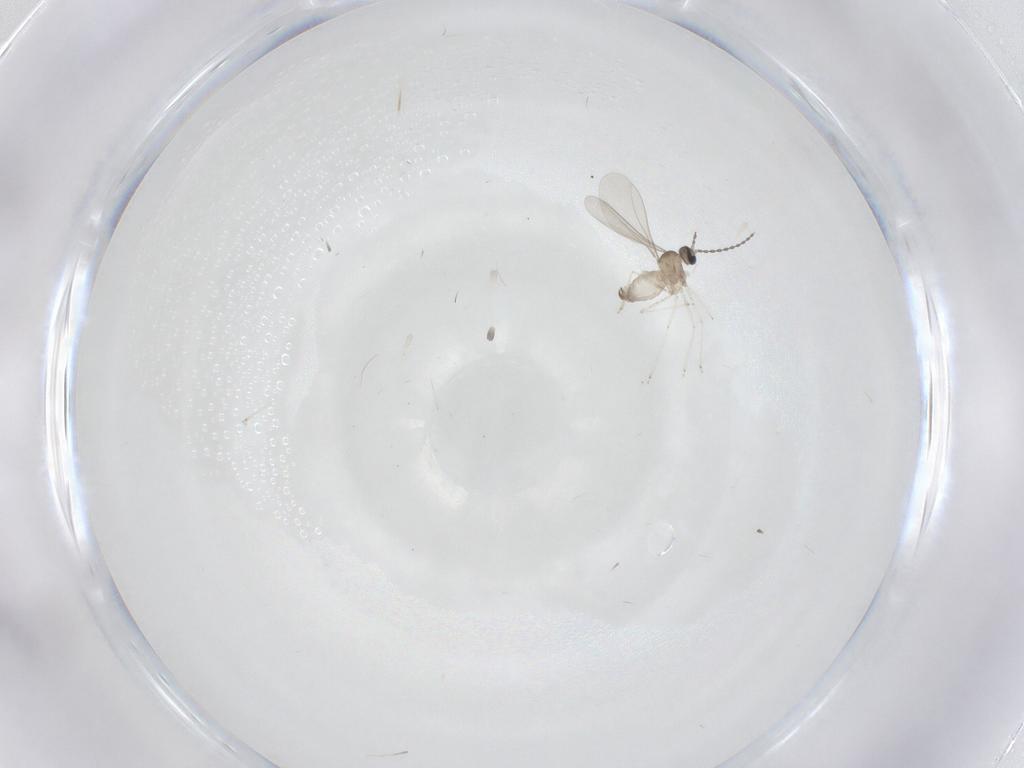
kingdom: Animalia
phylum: Arthropoda
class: Insecta
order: Diptera
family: Cecidomyiidae
